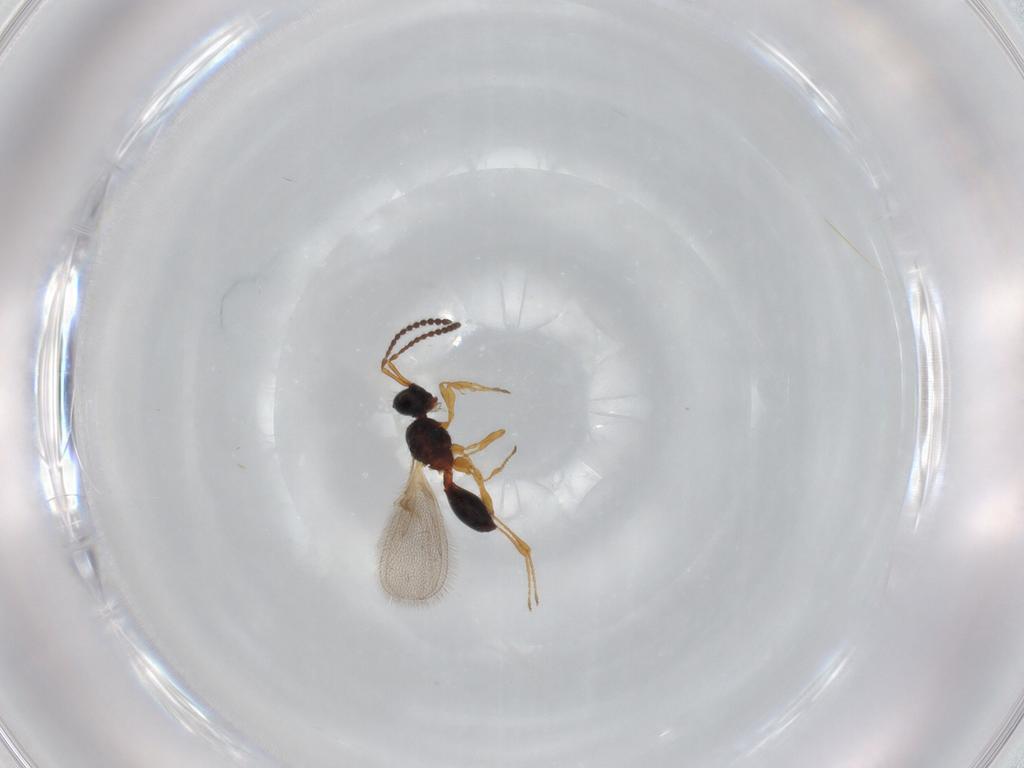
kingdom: Animalia
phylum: Arthropoda
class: Insecta
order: Hymenoptera
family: Diapriidae
